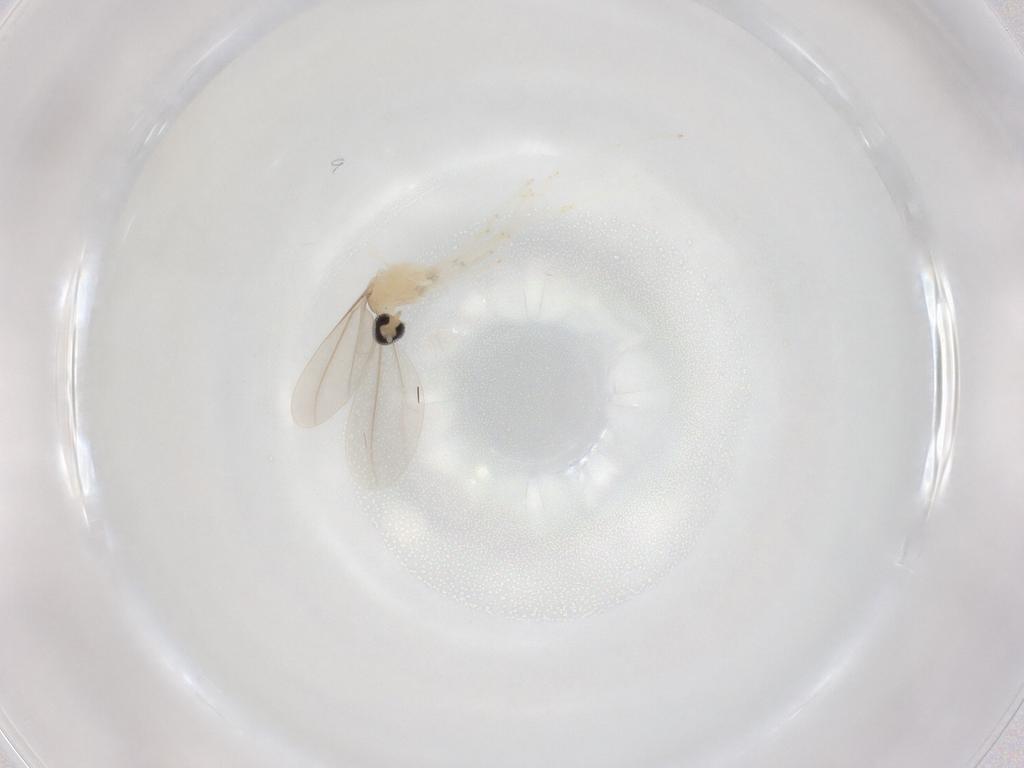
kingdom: Animalia
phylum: Arthropoda
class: Insecta
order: Diptera
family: Cecidomyiidae
